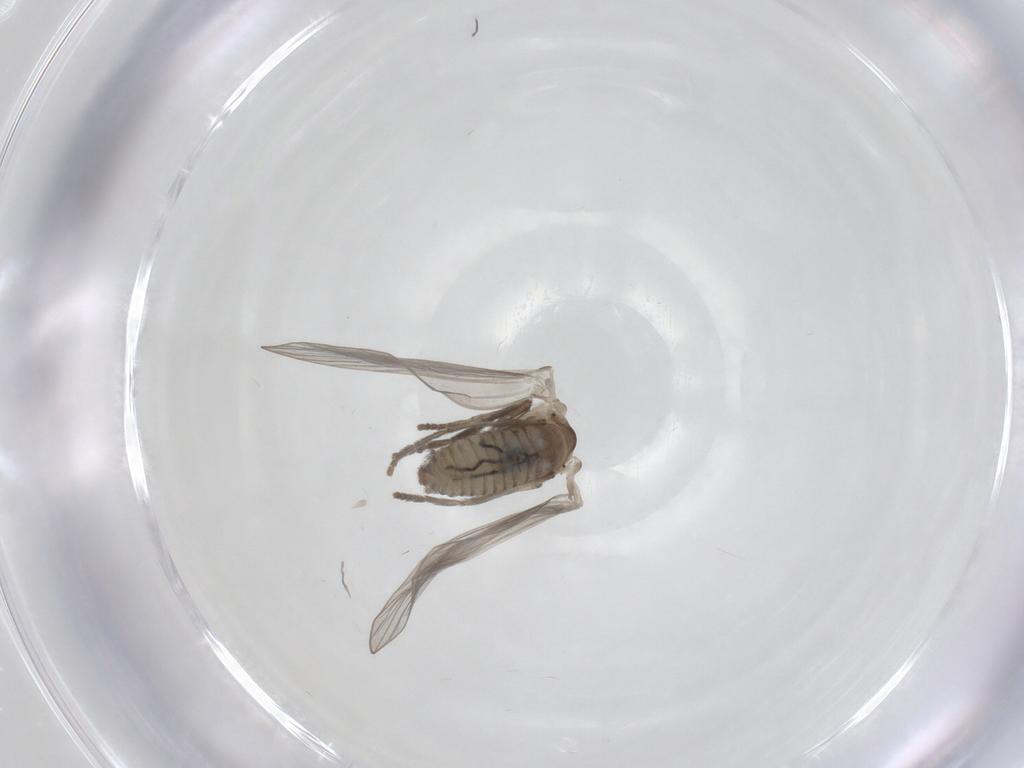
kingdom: Animalia
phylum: Arthropoda
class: Insecta
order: Diptera
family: Psychodidae
